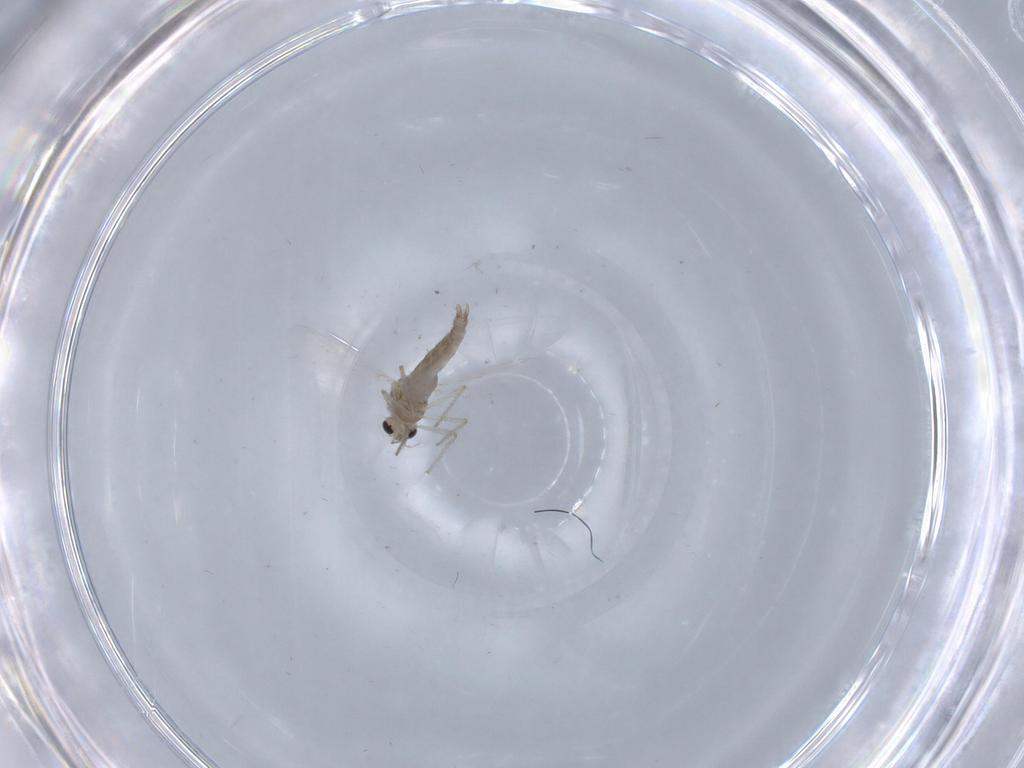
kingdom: Animalia
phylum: Arthropoda
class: Insecta
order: Diptera
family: Chironomidae
